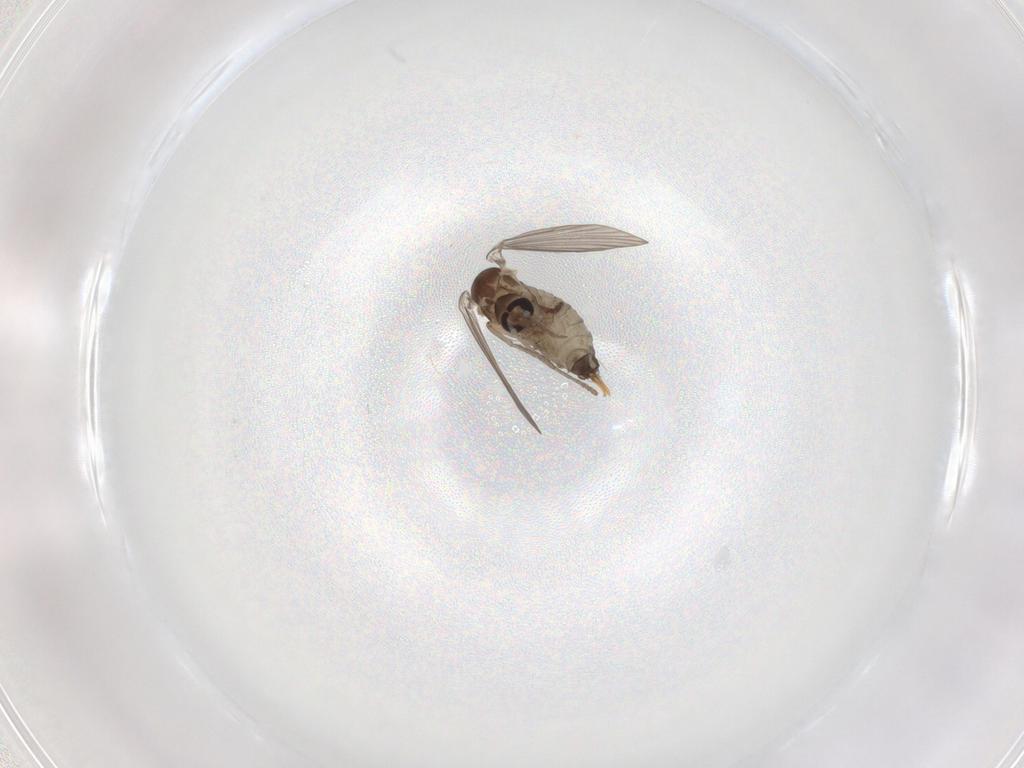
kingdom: Animalia
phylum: Arthropoda
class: Insecta
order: Diptera
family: Psychodidae
